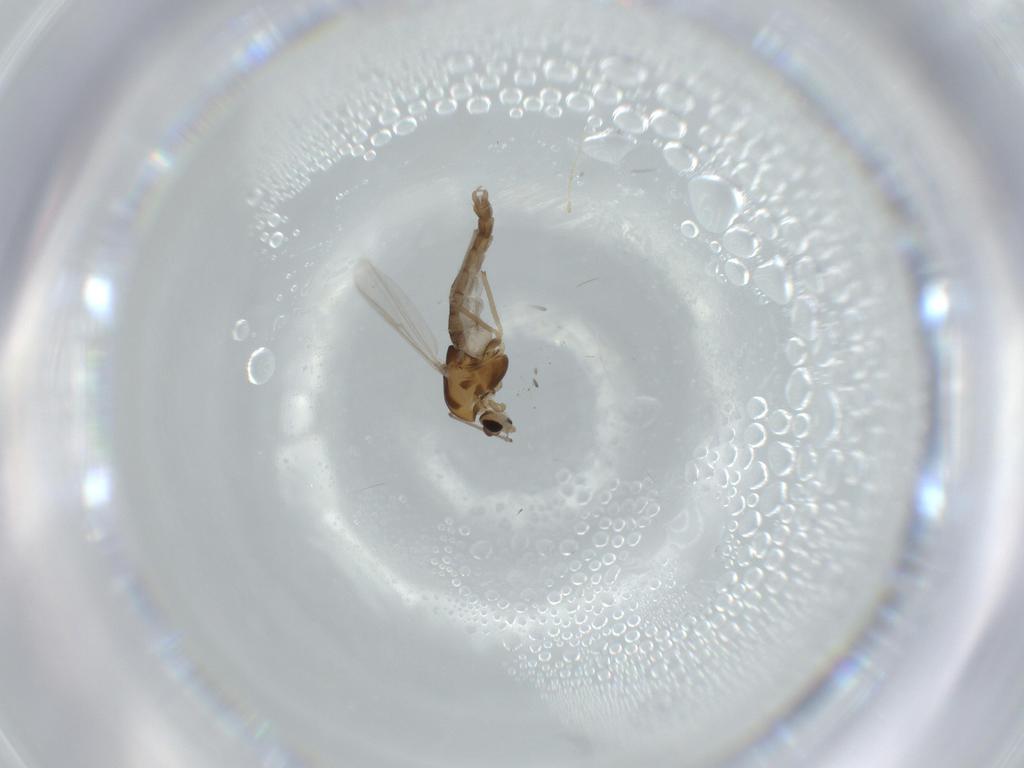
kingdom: Animalia
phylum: Arthropoda
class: Insecta
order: Diptera
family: Chironomidae
